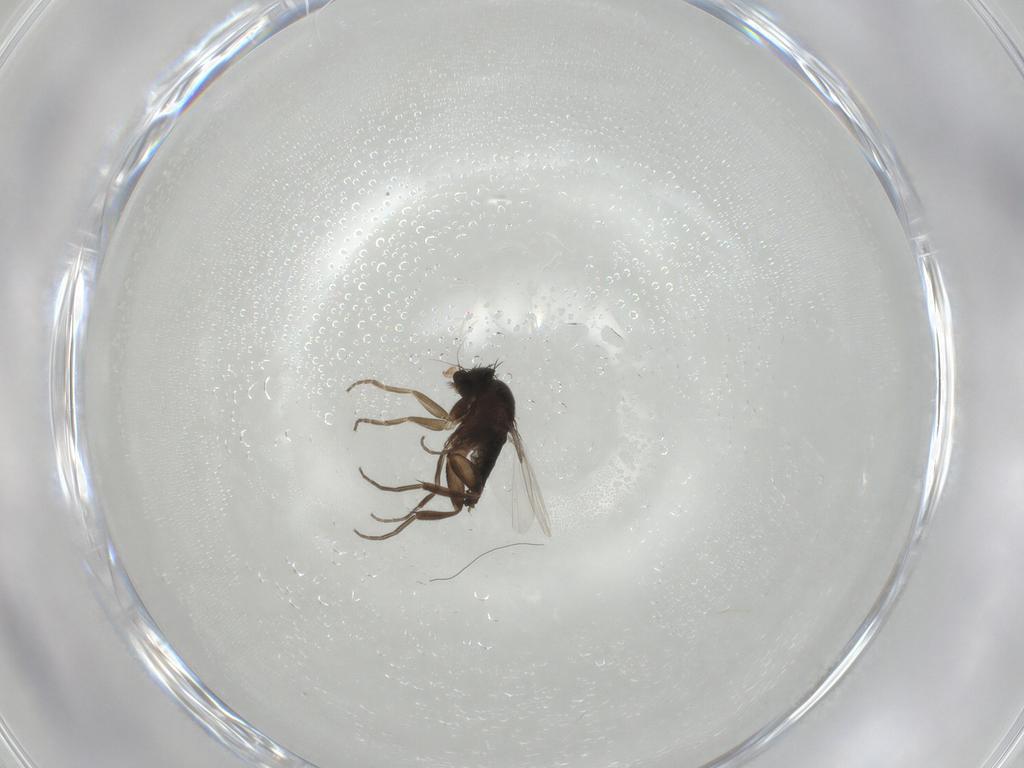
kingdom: Animalia
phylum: Arthropoda
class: Insecta
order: Diptera
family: Phoridae
